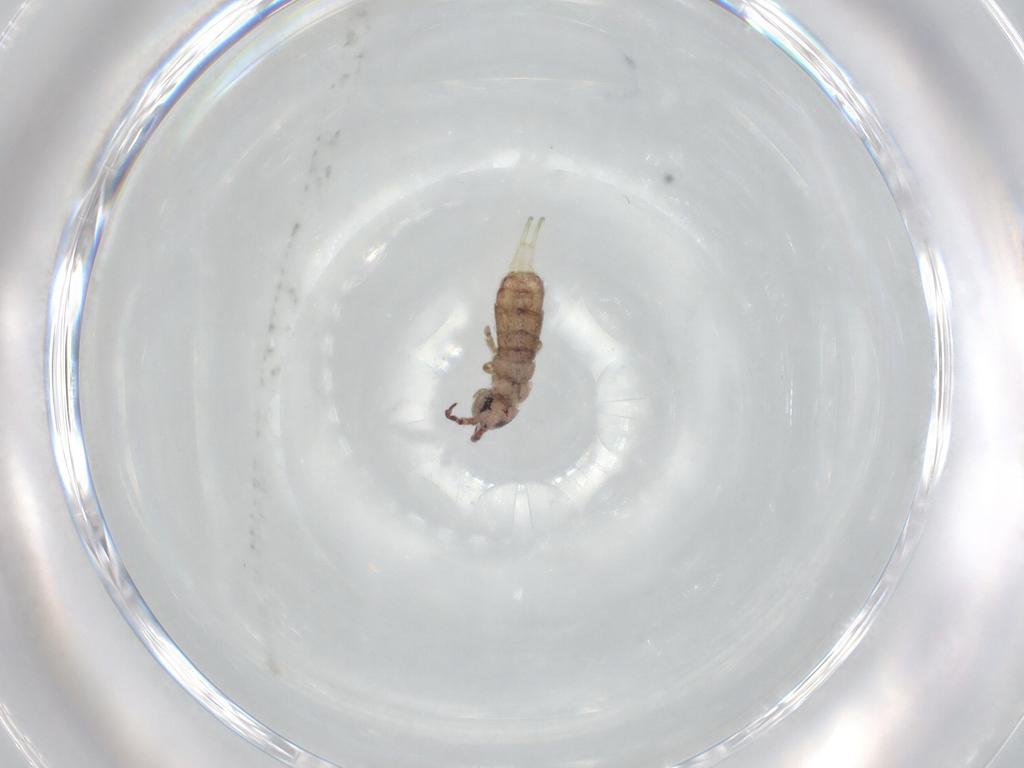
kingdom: Animalia
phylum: Arthropoda
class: Collembola
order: Entomobryomorpha
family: Isotomidae
